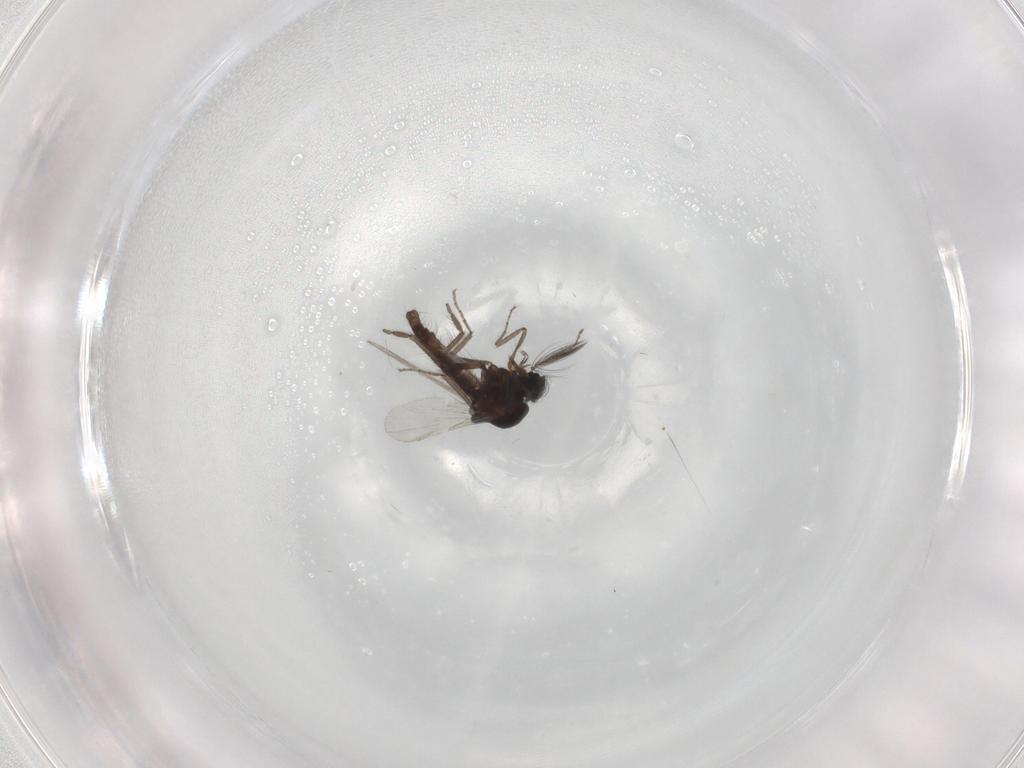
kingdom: Animalia
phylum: Arthropoda
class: Insecta
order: Diptera
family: Ceratopogonidae
